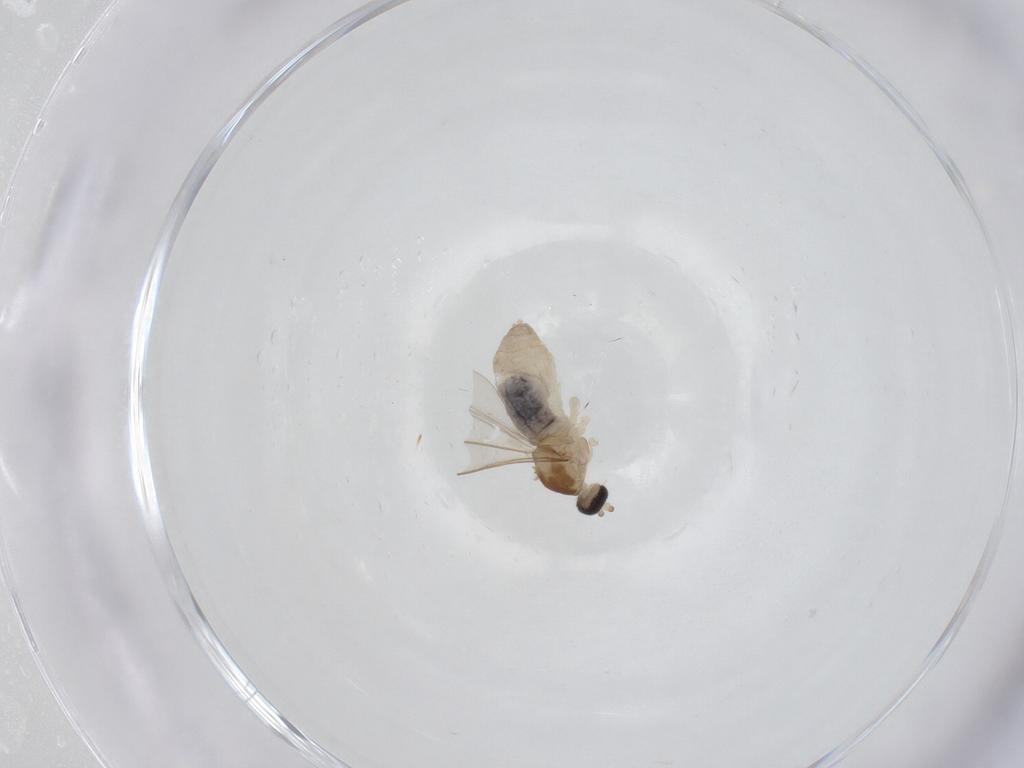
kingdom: Animalia
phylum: Arthropoda
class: Insecta
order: Diptera
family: Cecidomyiidae
